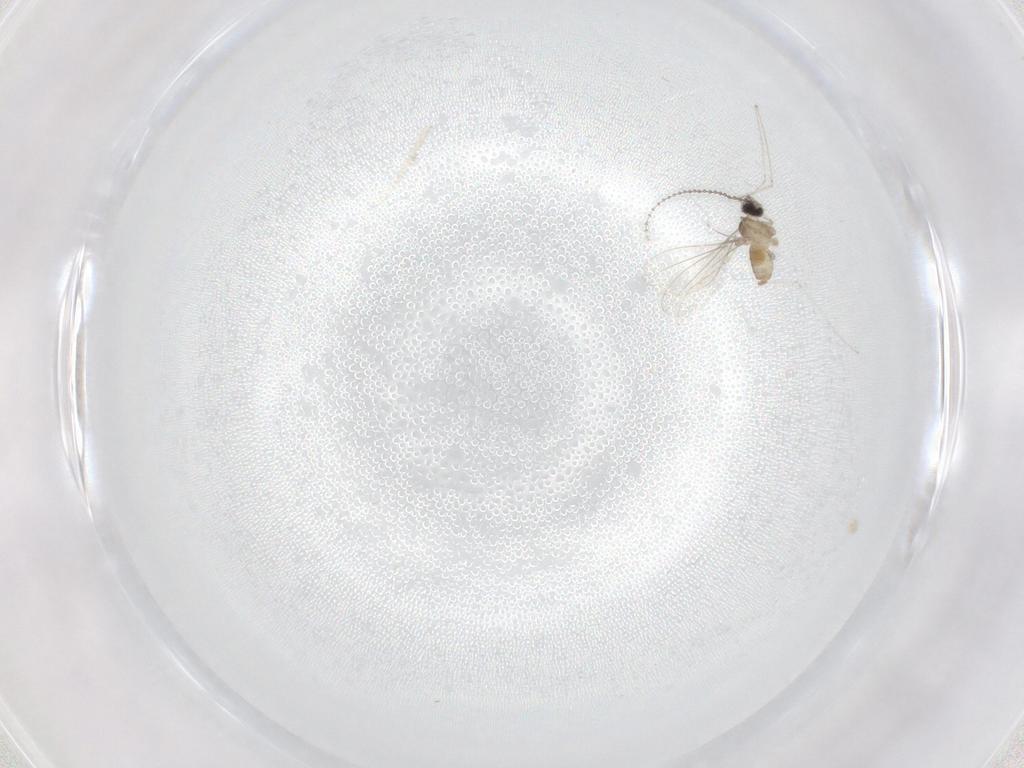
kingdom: Animalia
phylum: Arthropoda
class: Insecta
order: Diptera
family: Cecidomyiidae
